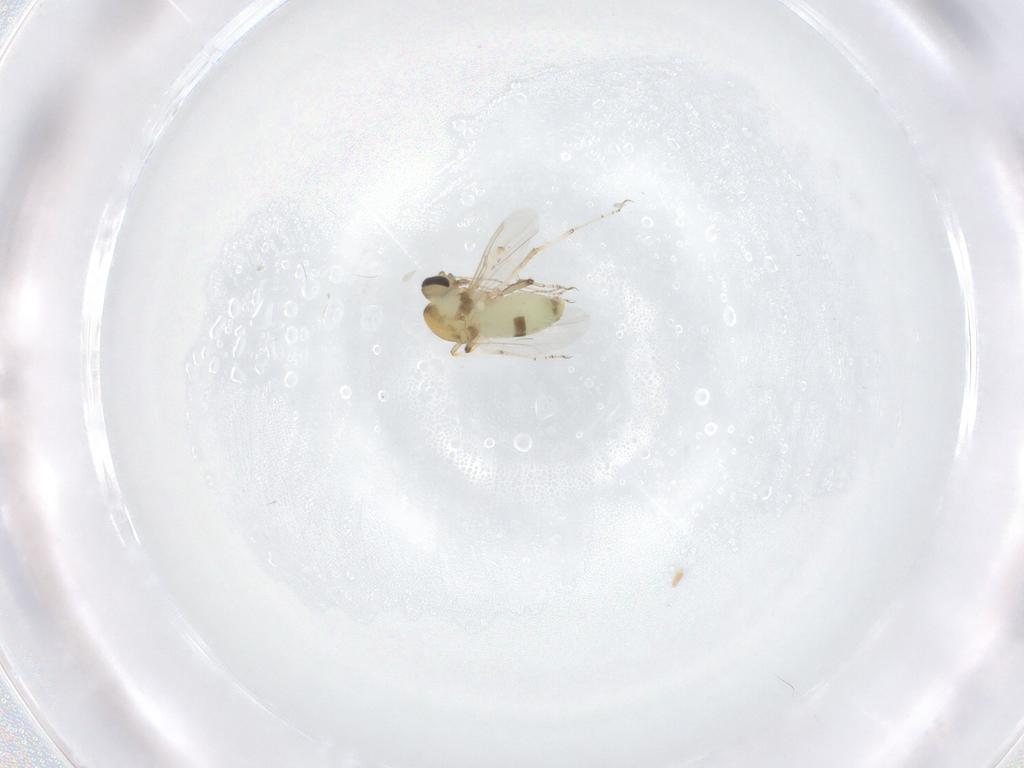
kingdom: Animalia
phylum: Arthropoda
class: Insecta
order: Diptera
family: Ceratopogonidae
